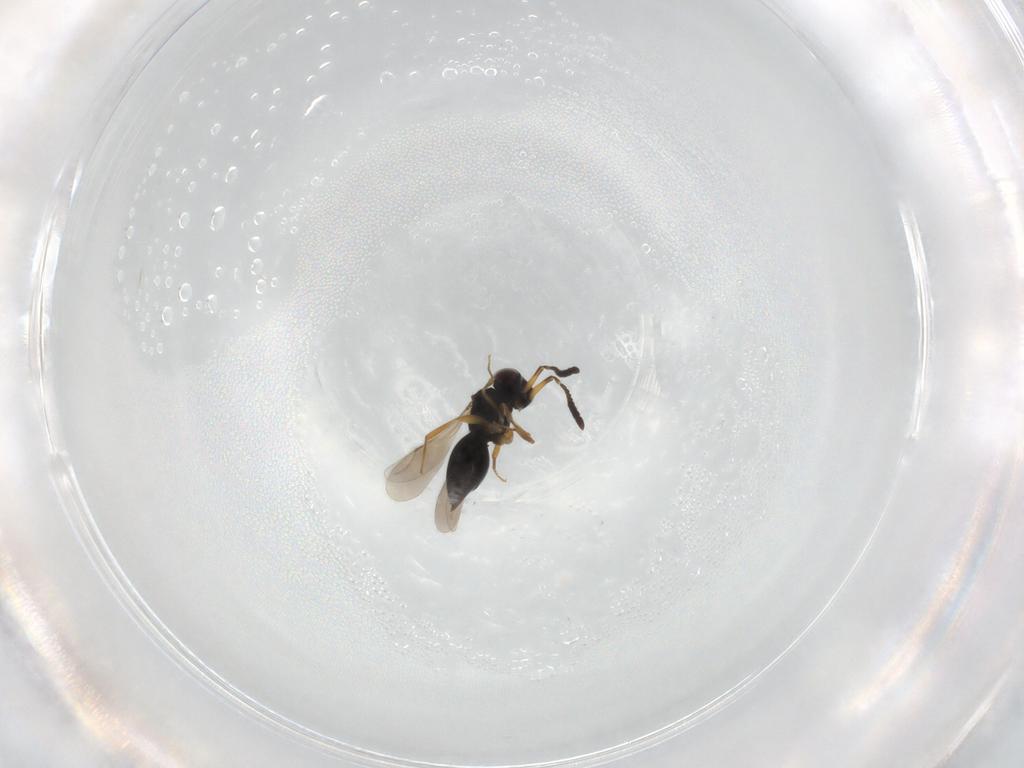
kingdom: Animalia
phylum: Arthropoda
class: Insecta
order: Hymenoptera
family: Ceraphronidae
